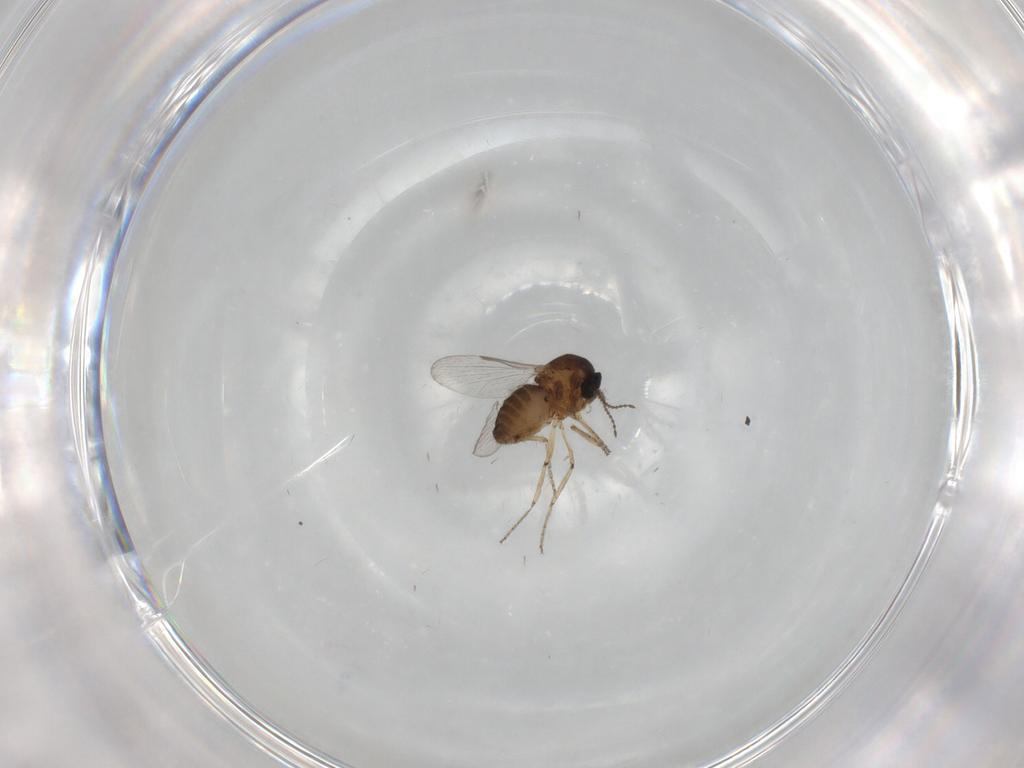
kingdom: Animalia
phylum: Arthropoda
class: Insecta
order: Diptera
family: Ceratopogonidae
